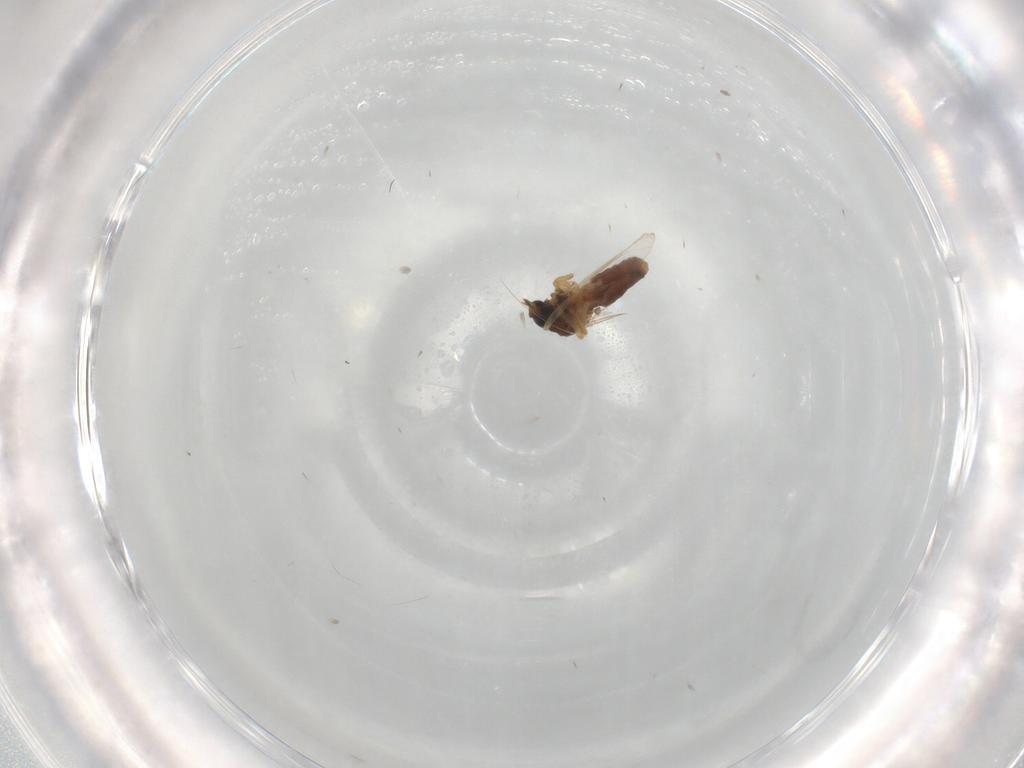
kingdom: Animalia
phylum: Arthropoda
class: Insecta
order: Diptera
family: Ceratopogonidae
